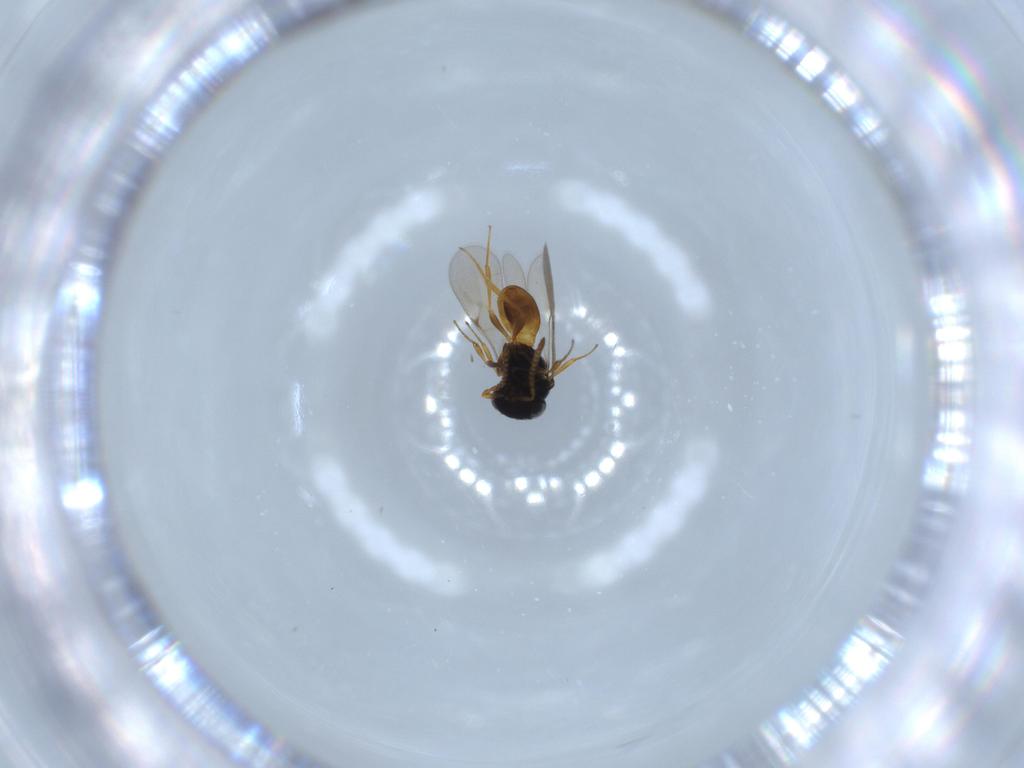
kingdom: Animalia
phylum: Arthropoda
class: Insecta
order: Hymenoptera
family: Scelionidae
